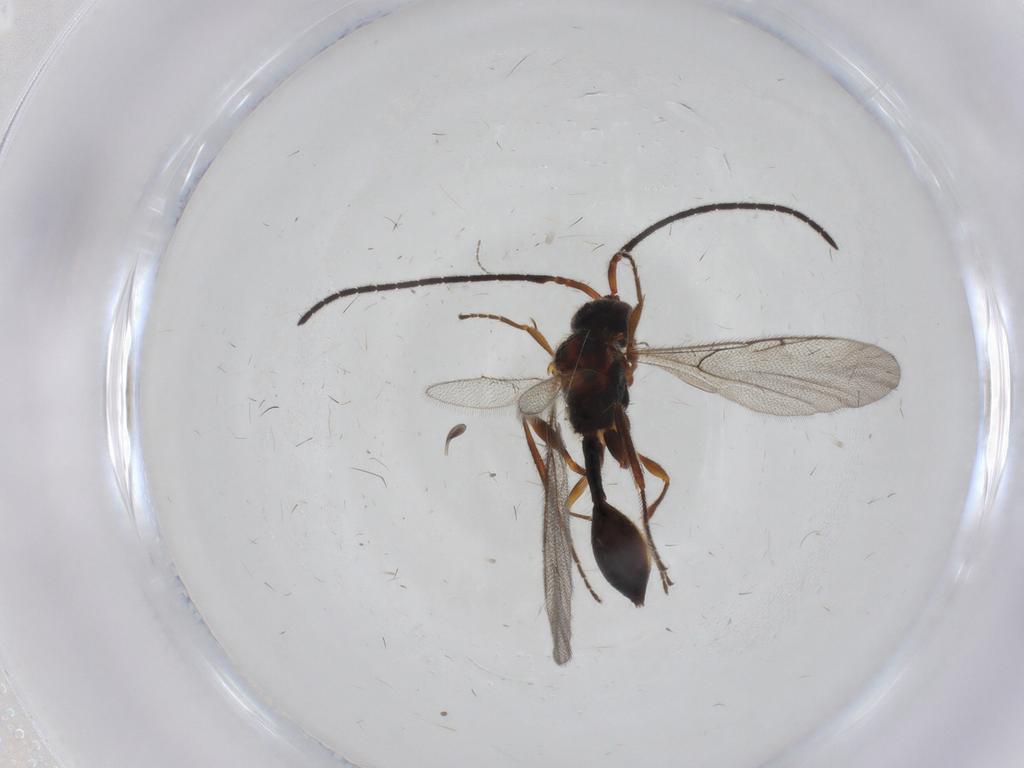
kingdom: Animalia
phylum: Arthropoda
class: Insecta
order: Hymenoptera
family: Diapriidae
